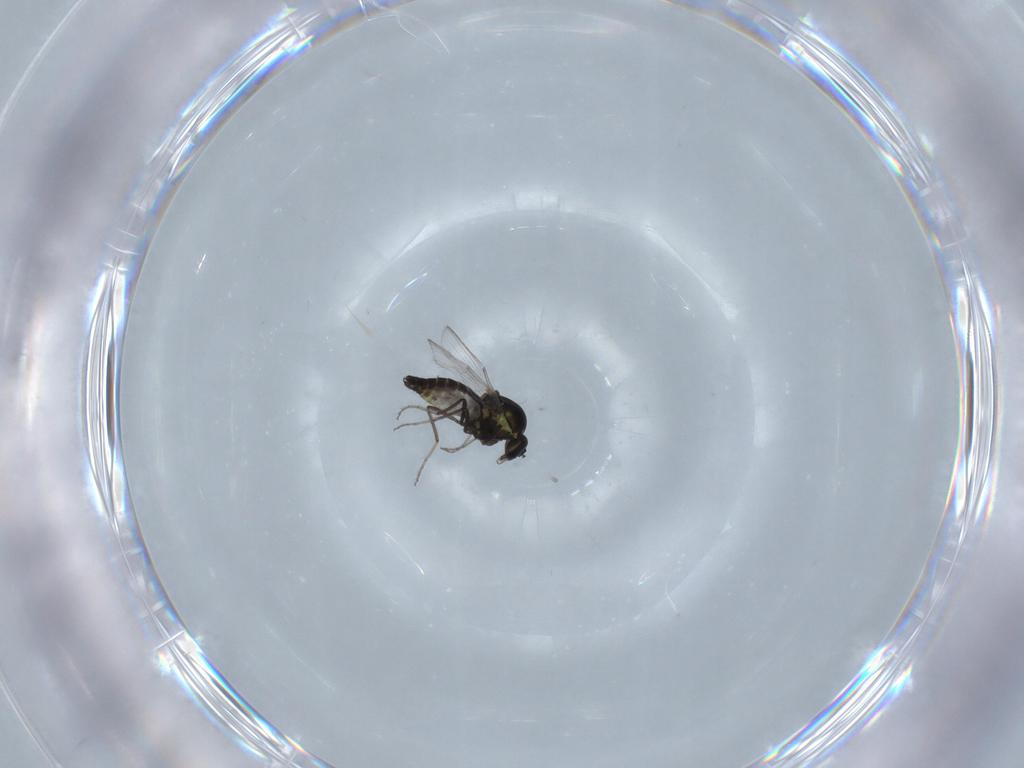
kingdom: Animalia
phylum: Arthropoda
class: Insecta
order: Diptera
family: Ceratopogonidae
